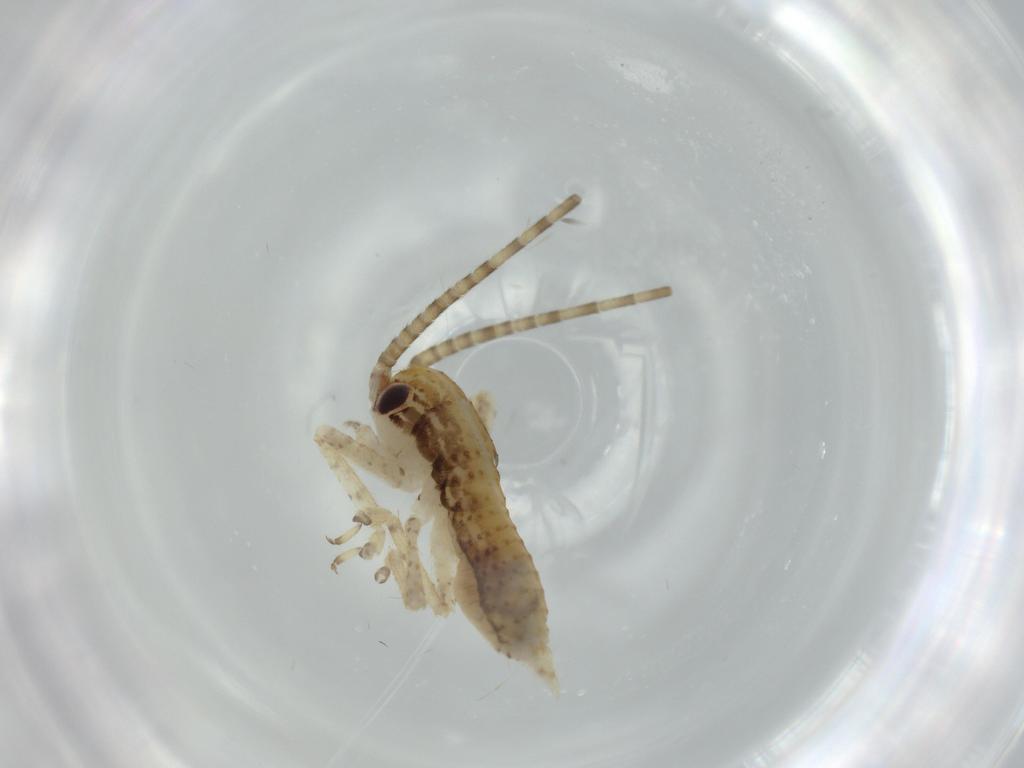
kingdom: Animalia
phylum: Arthropoda
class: Insecta
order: Orthoptera
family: Gryllidae
